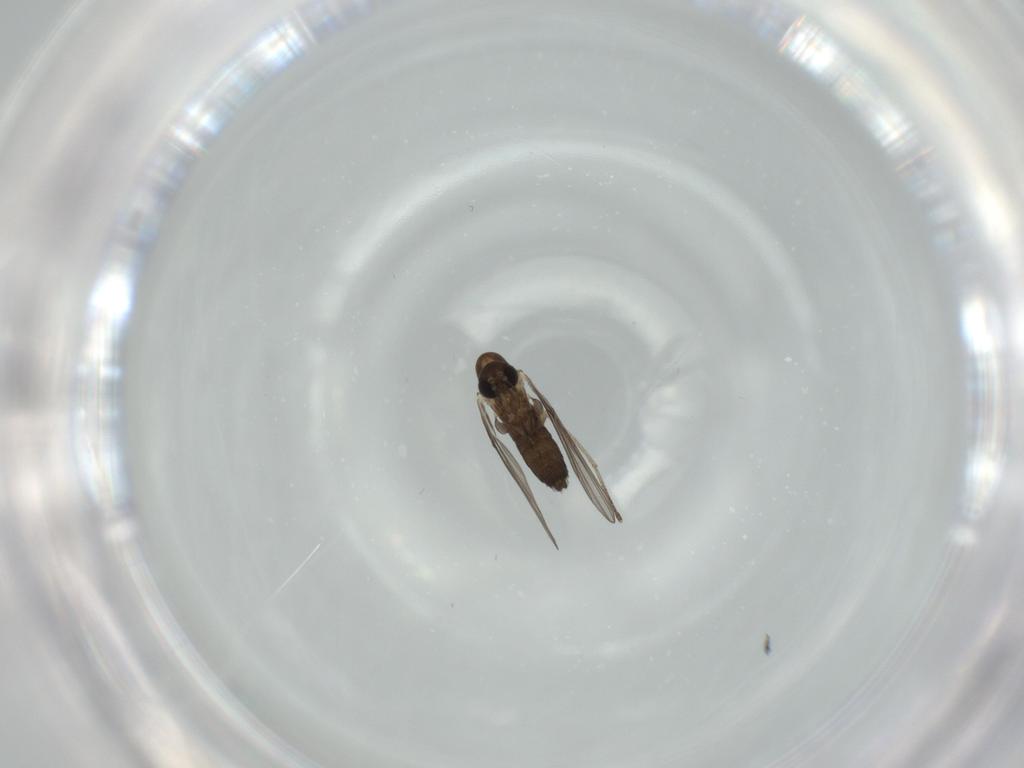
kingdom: Animalia
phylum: Arthropoda
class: Insecta
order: Diptera
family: Psychodidae
